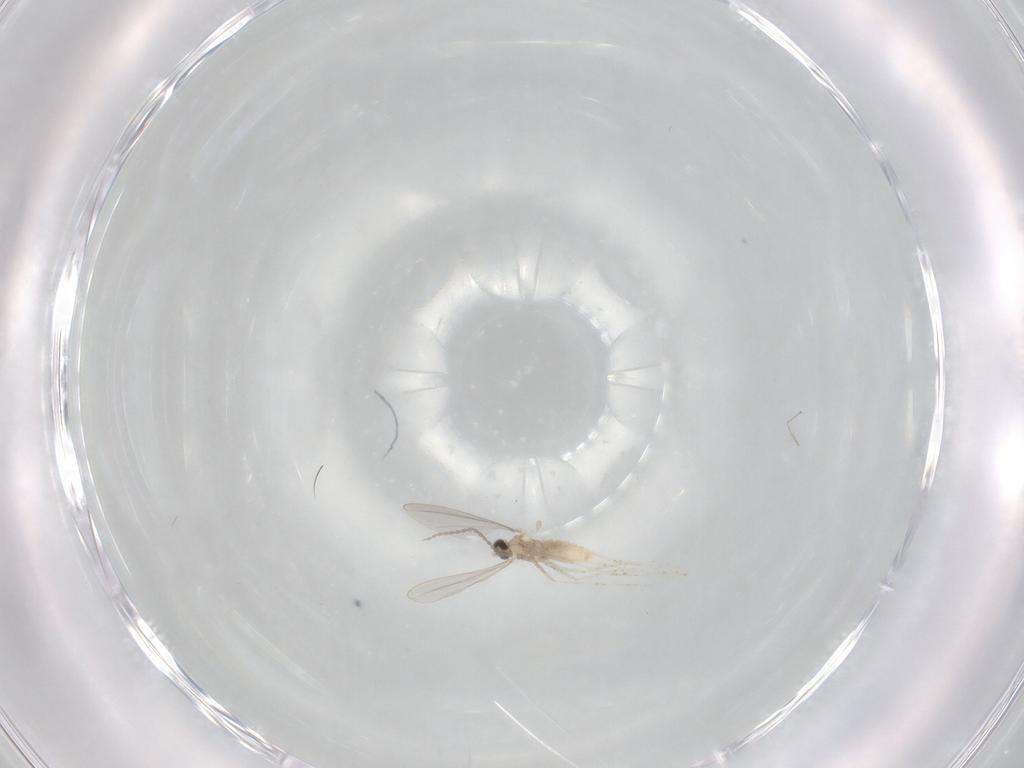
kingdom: Animalia
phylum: Arthropoda
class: Insecta
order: Diptera
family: Cecidomyiidae
